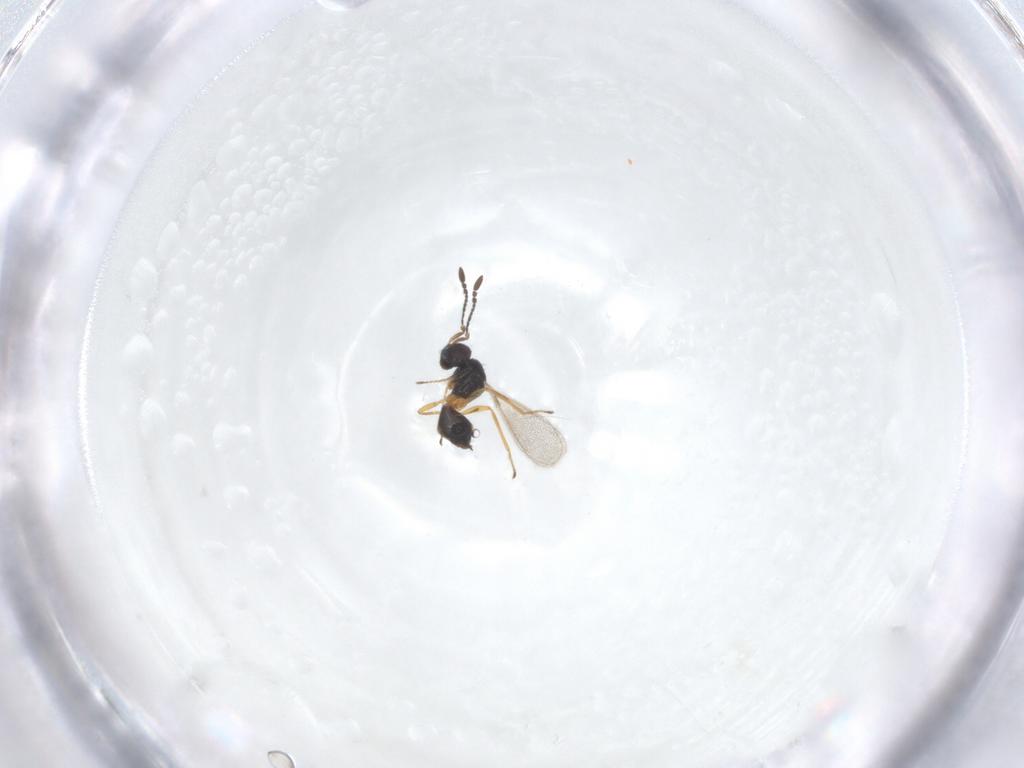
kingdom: Animalia
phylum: Arthropoda
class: Insecta
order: Hymenoptera
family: Mymaridae
